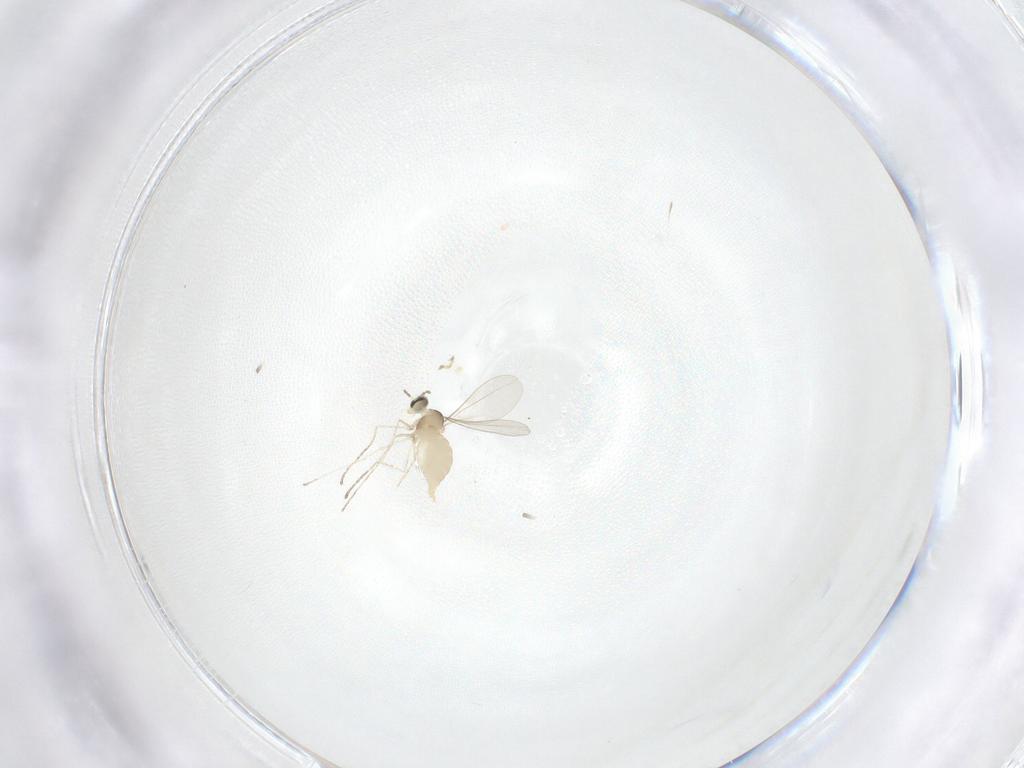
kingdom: Animalia
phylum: Arthropoda
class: Insecta
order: Diptera
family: Cecidomyiidae
